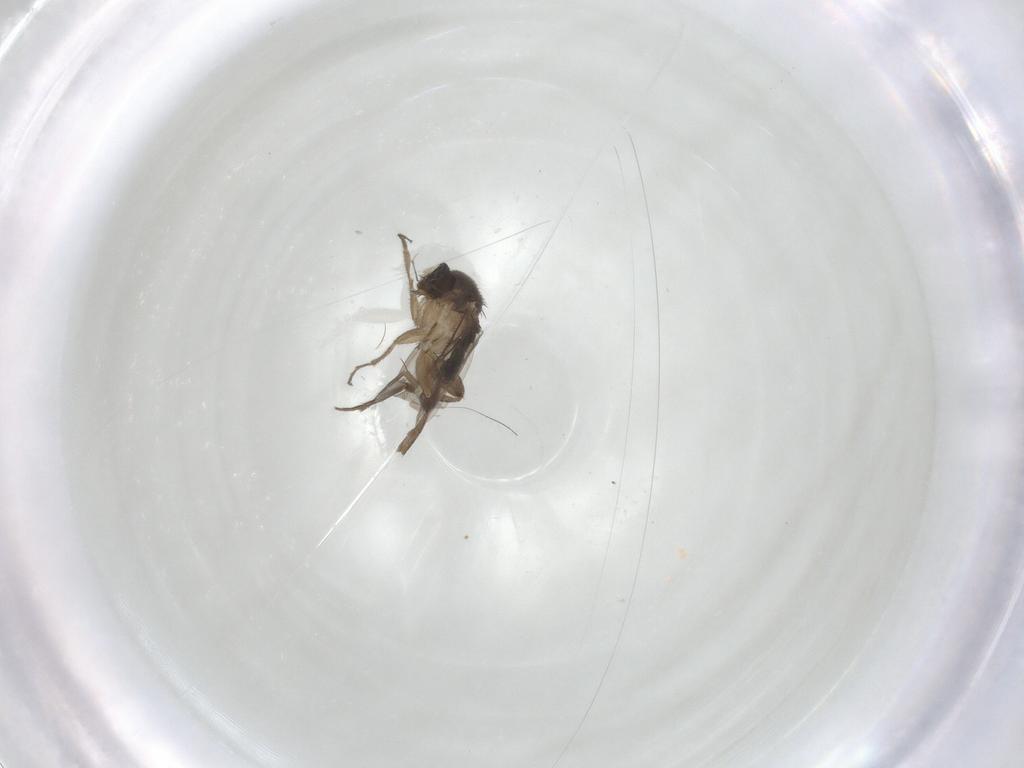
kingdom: Animalia
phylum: Arthropoda
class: Insecta
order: Diptera
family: Phoridae
